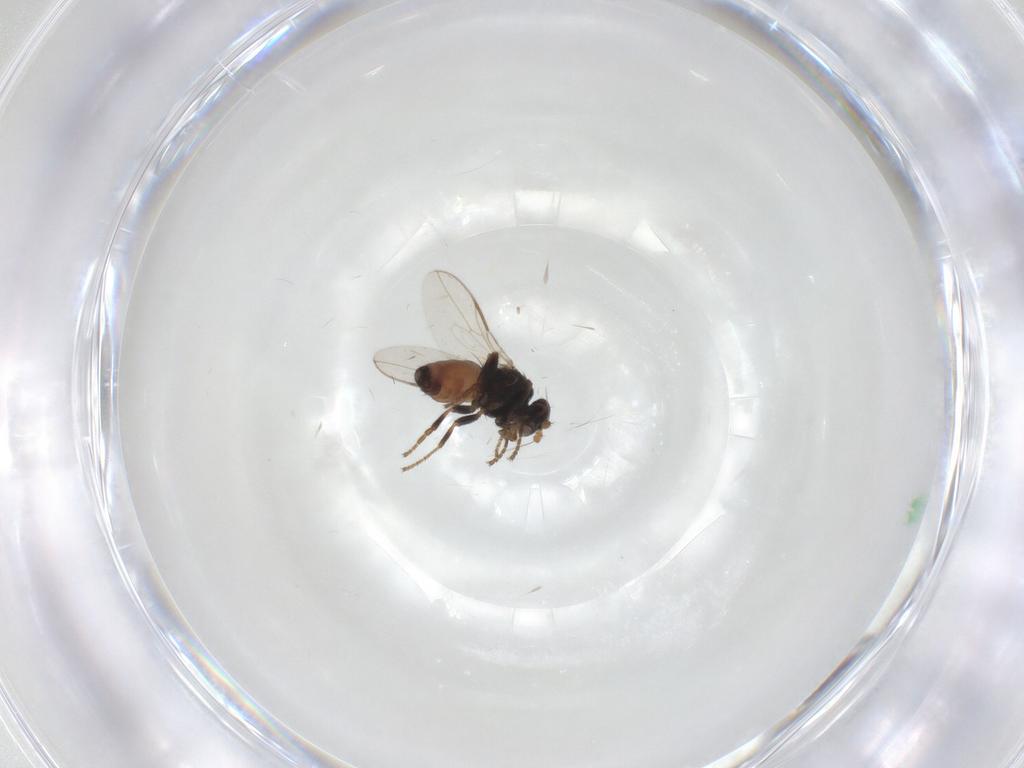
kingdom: Animalia
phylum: Arthropoda
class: Insecta
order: Diptera
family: Sphaeroceridae
